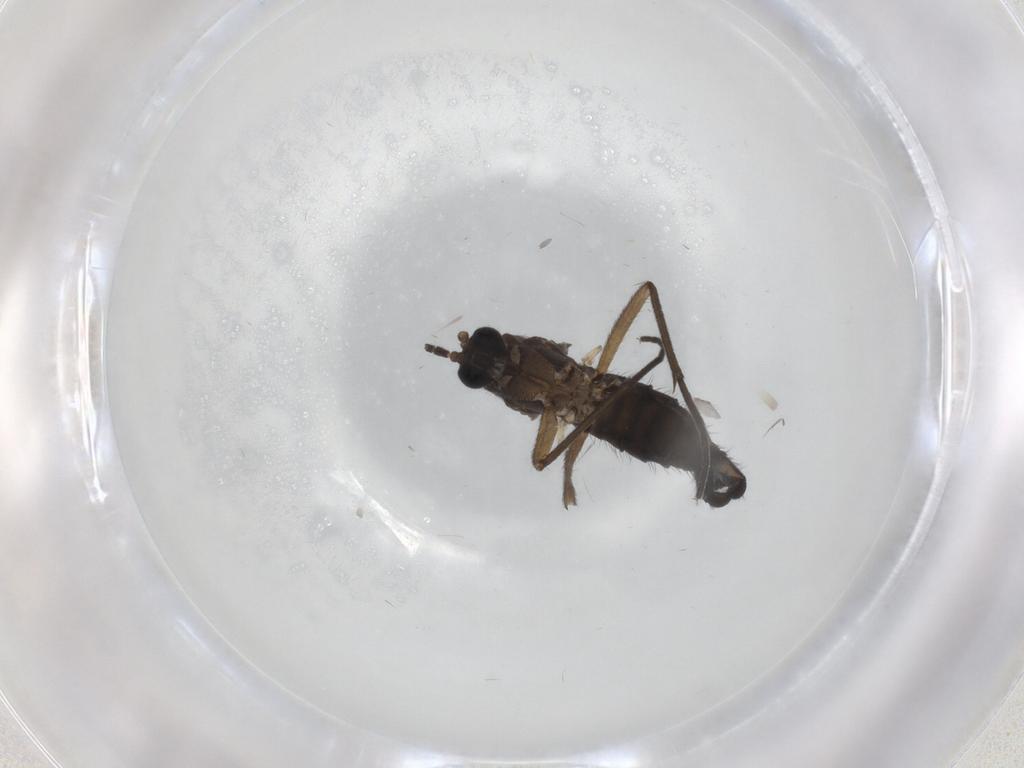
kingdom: Animalia
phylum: Arthropoda
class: Insecta
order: Diptera
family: Sciaridae
